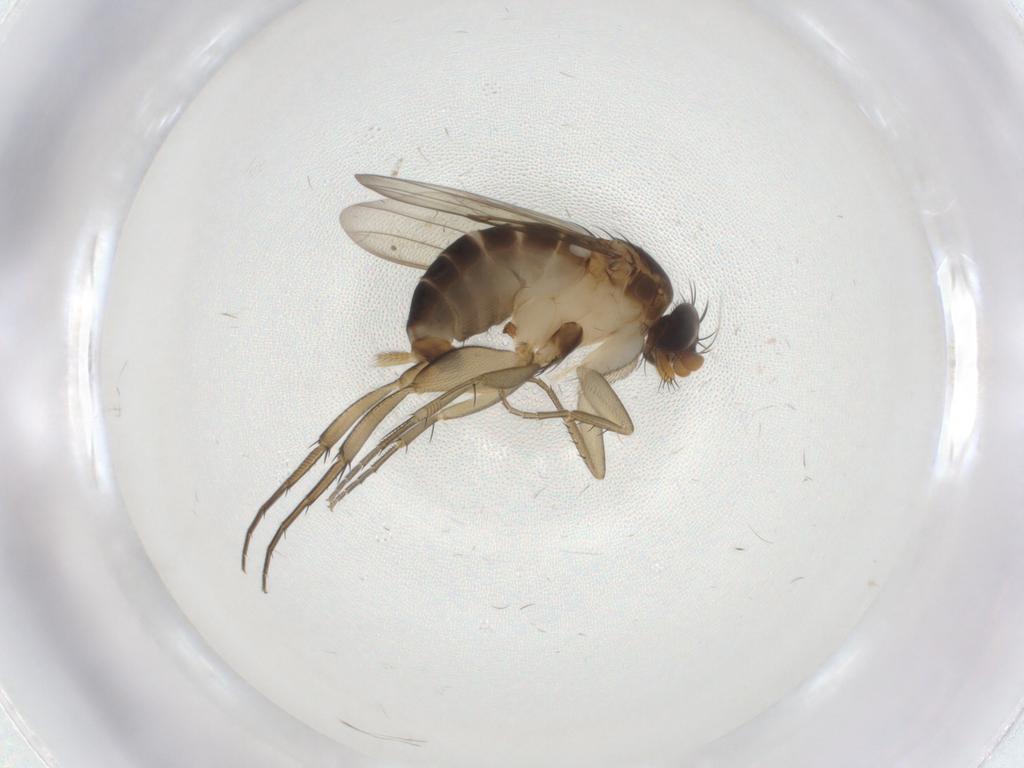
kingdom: Animalia
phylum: Arthropoda
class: Insecta
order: Diptera
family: Phoridae
